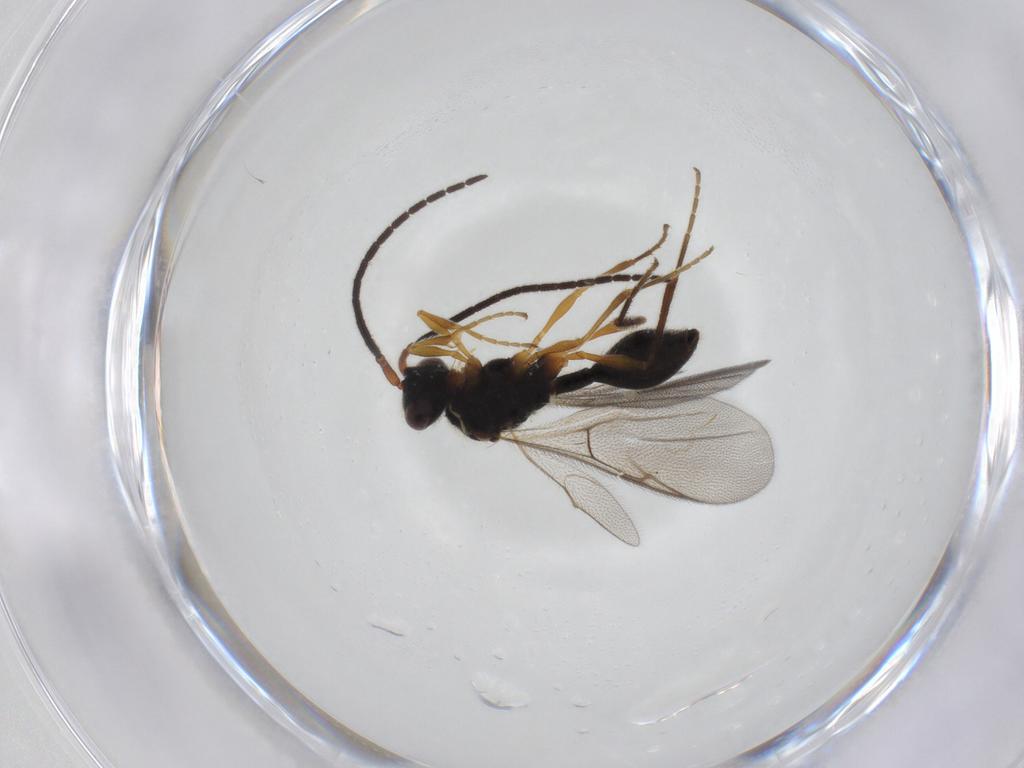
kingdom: Animalia
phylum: Arthropoda
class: Insecta
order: Hymenoptera
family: Diapriidae
